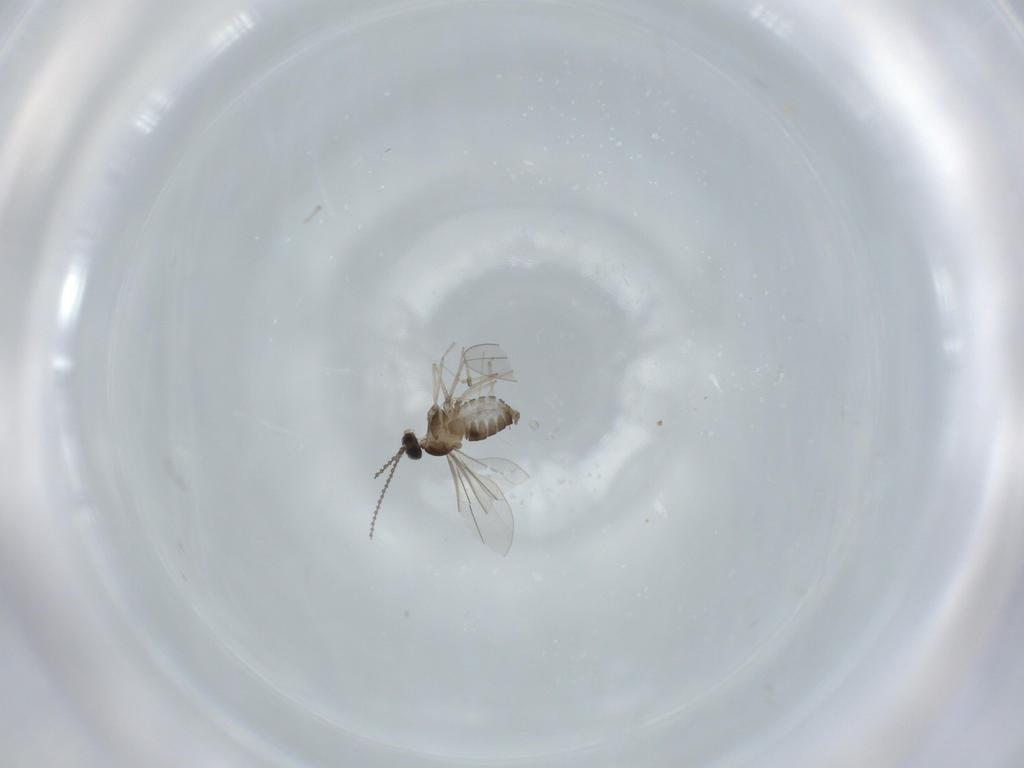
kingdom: Animalia
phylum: Arthropoda
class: Insecta
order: Diptera
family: Cecidomyiidae
